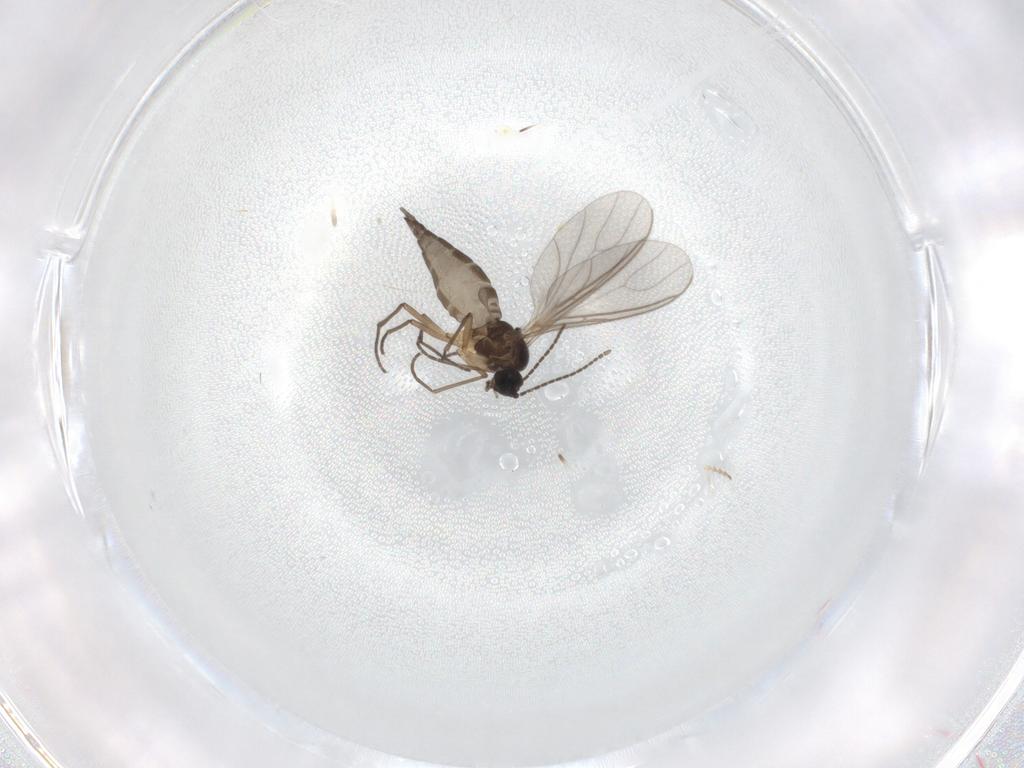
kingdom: Animalia
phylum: Arthropoda
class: Insecta
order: Diptera
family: Sciaridae
